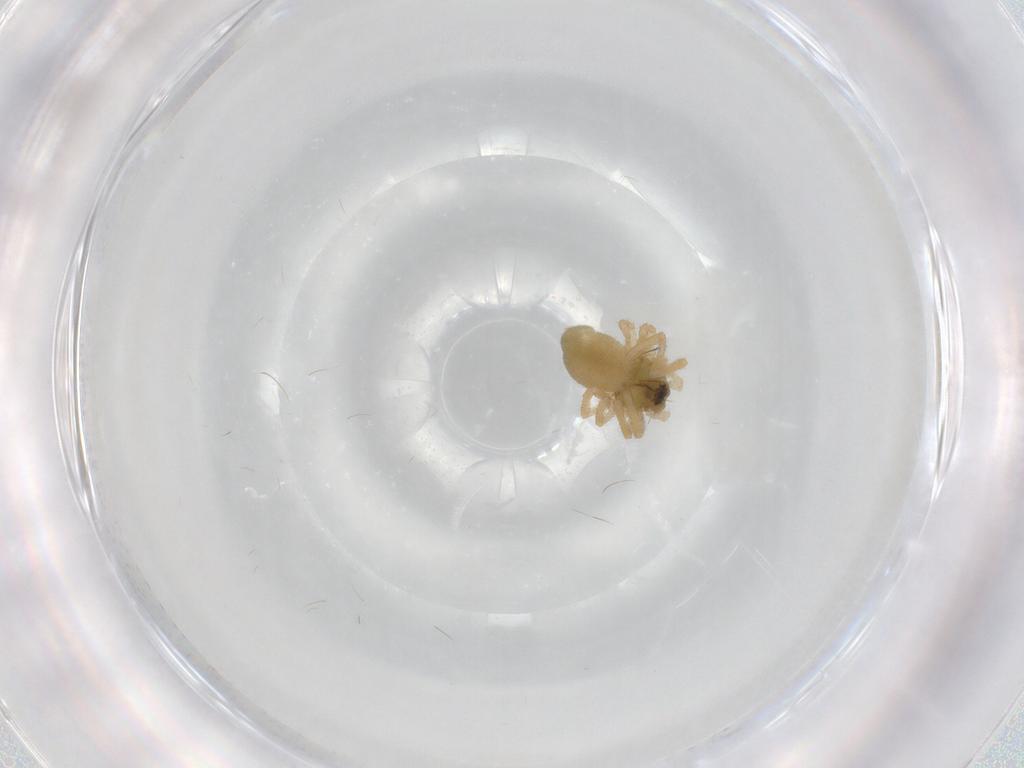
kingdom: Animalia
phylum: Arthropoda
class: Arachnida
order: Araneae
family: Linyphiidae
